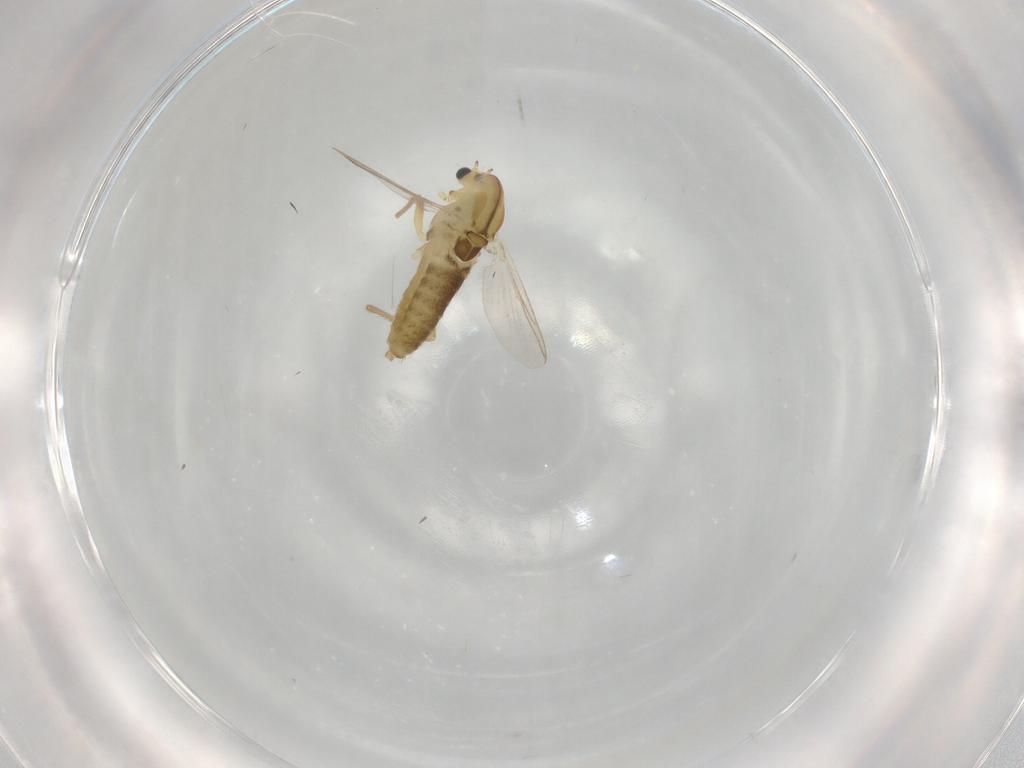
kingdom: Animalia
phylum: Arthropoda
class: Insecta
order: Diptera
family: Chironomidae
